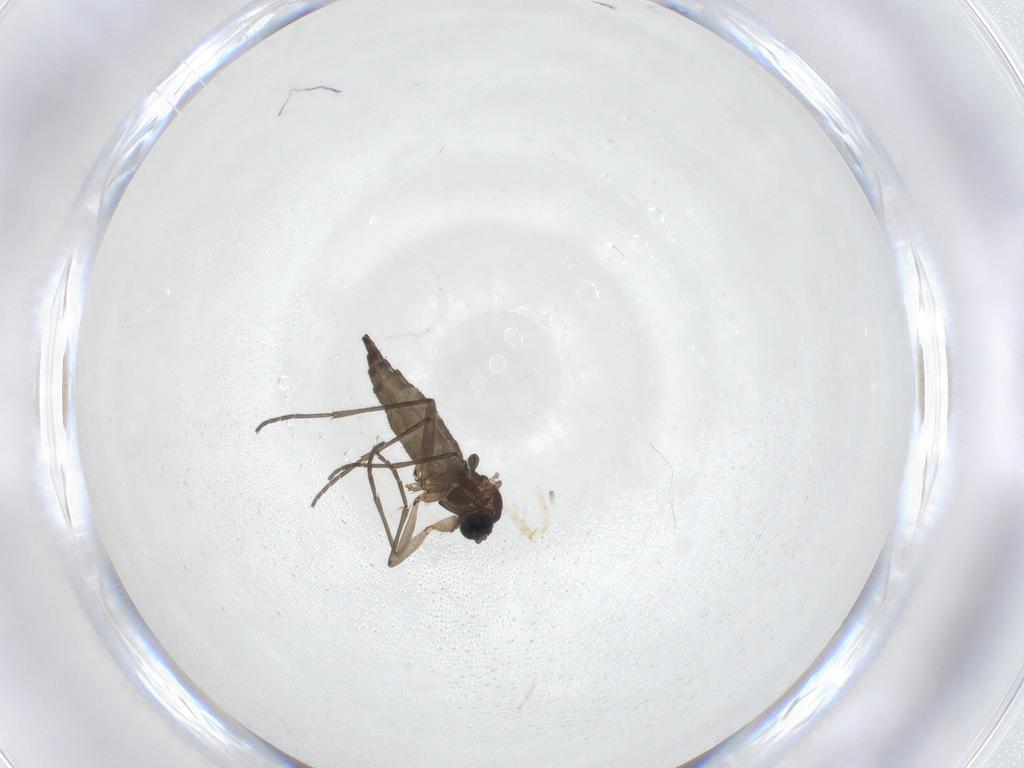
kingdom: Animalia
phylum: Arthropoda
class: Insecta
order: Diptera
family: Sciaridae
